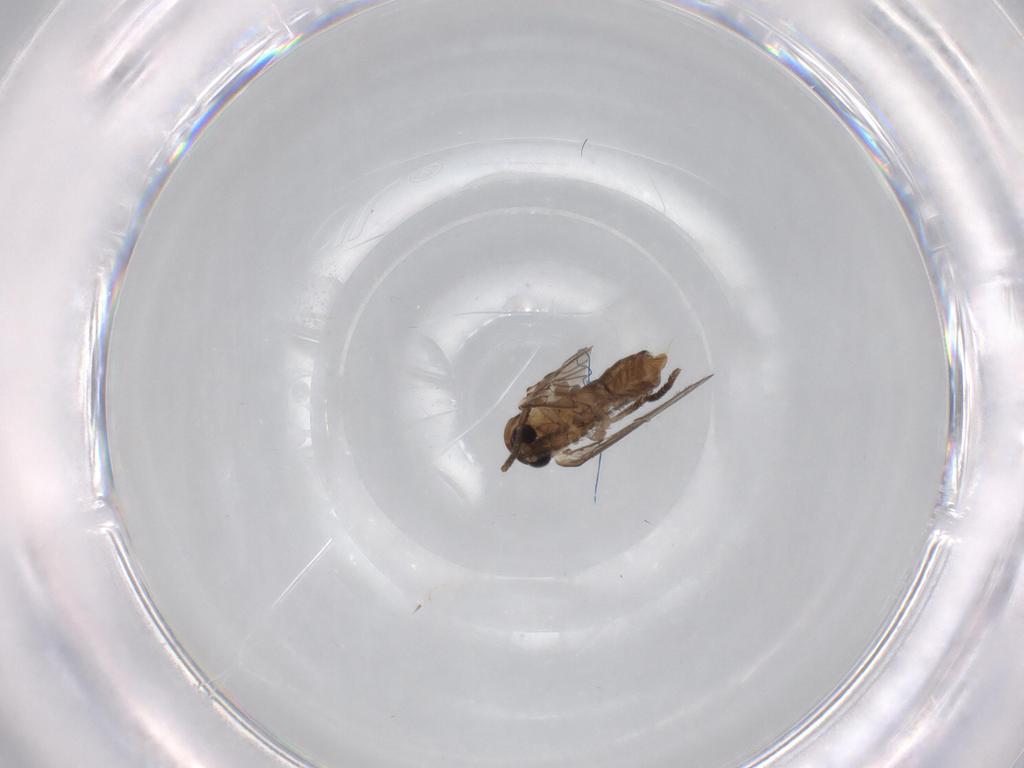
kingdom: Animalia
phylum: Arthropoda
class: Insecta
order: Diptera
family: Psychodidae
